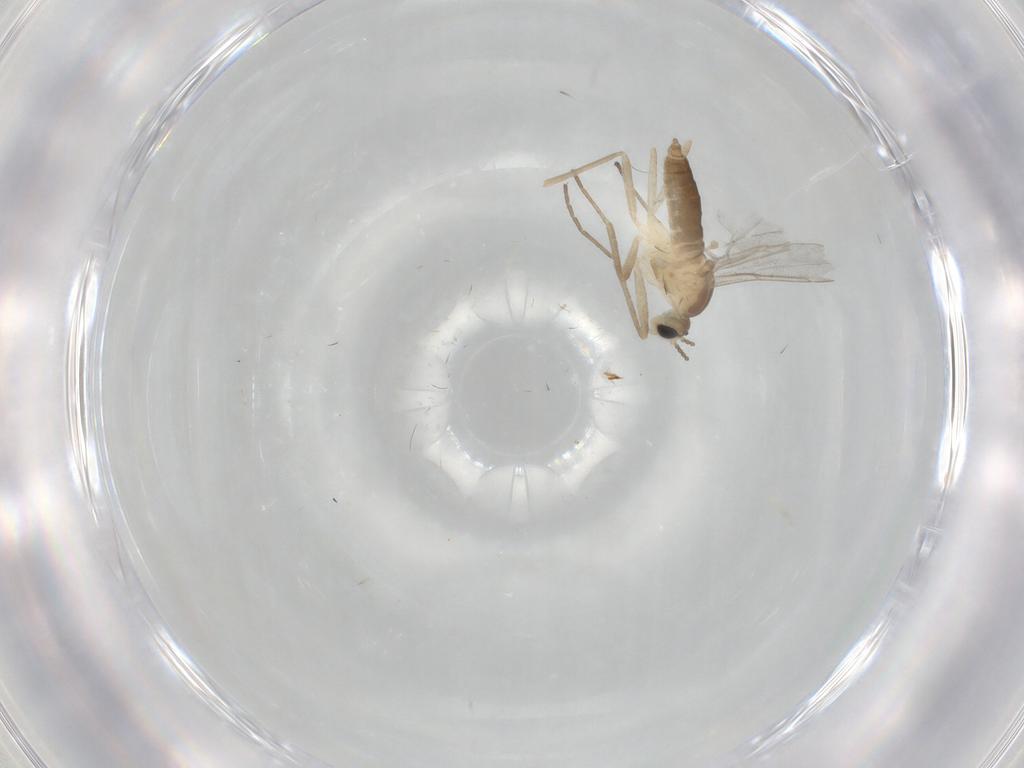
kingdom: Animalia
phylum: Arthropoda
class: Insecta
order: Diptera
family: Cecidomyiidae
